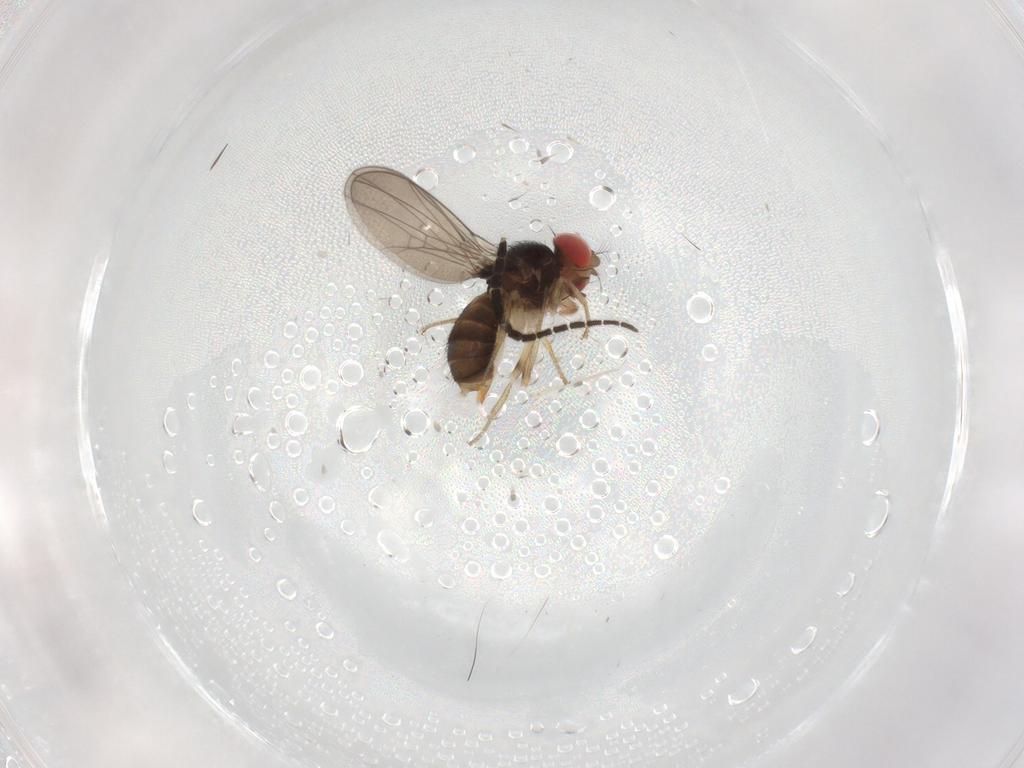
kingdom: Animalia
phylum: Arthropoda
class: Insecta
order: Diptera
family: Drosophilidae
